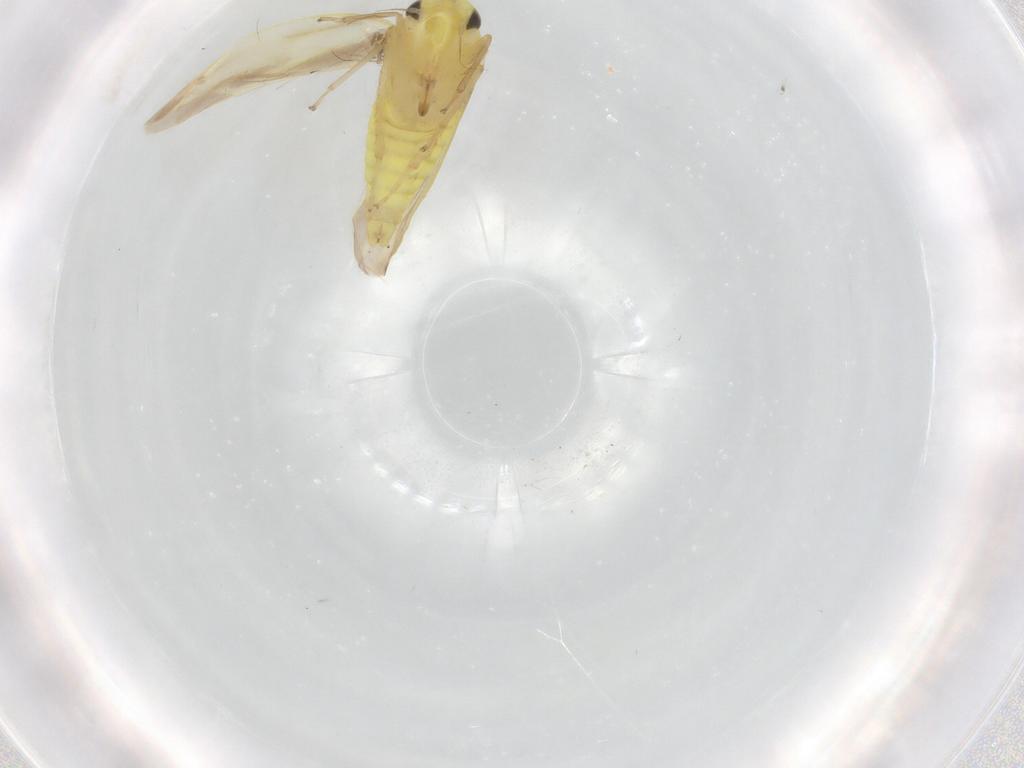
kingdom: Animalia
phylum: Arthropoda
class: Insecta
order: Hemiptera
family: Cicadellidae
